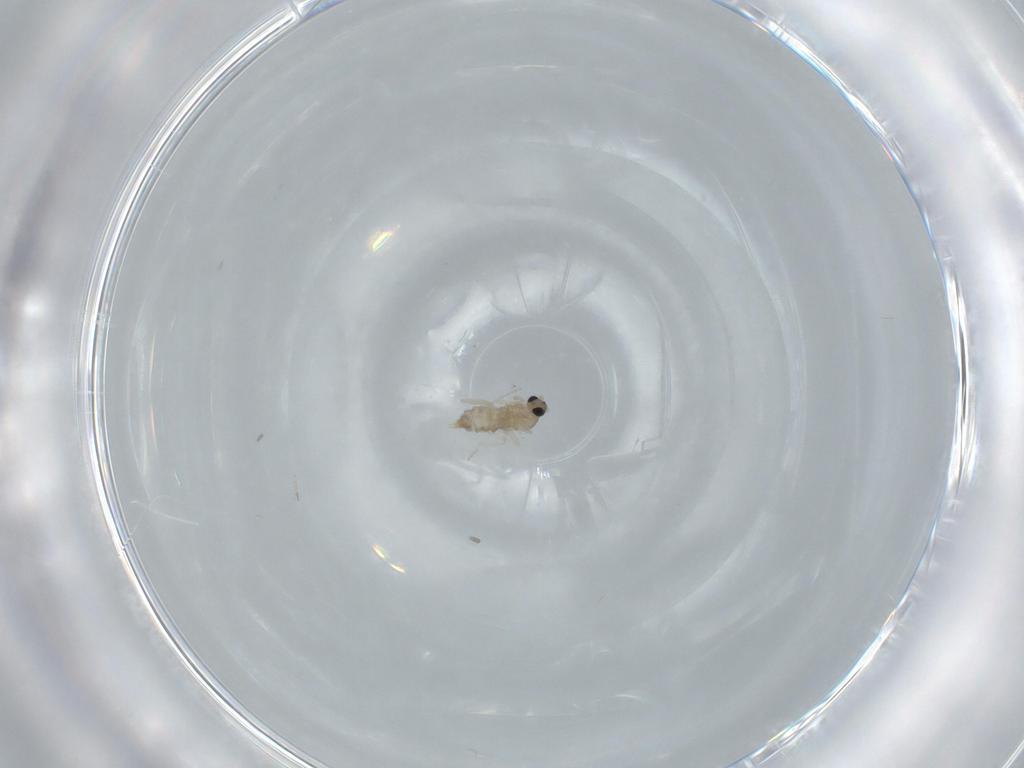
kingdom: Animalia
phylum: Arthropoda
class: Insecta
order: Diptera
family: Cecidomyiidae
